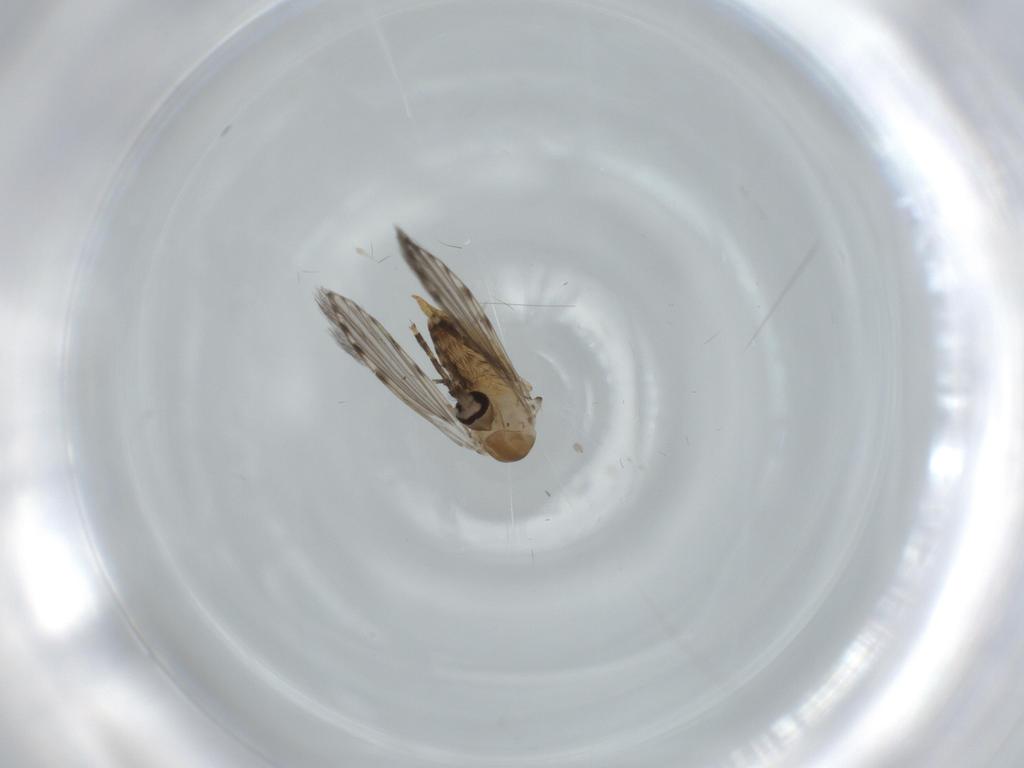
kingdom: Animalia
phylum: Arthropoda
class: Insecta
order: Diptera
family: Psychodidae
